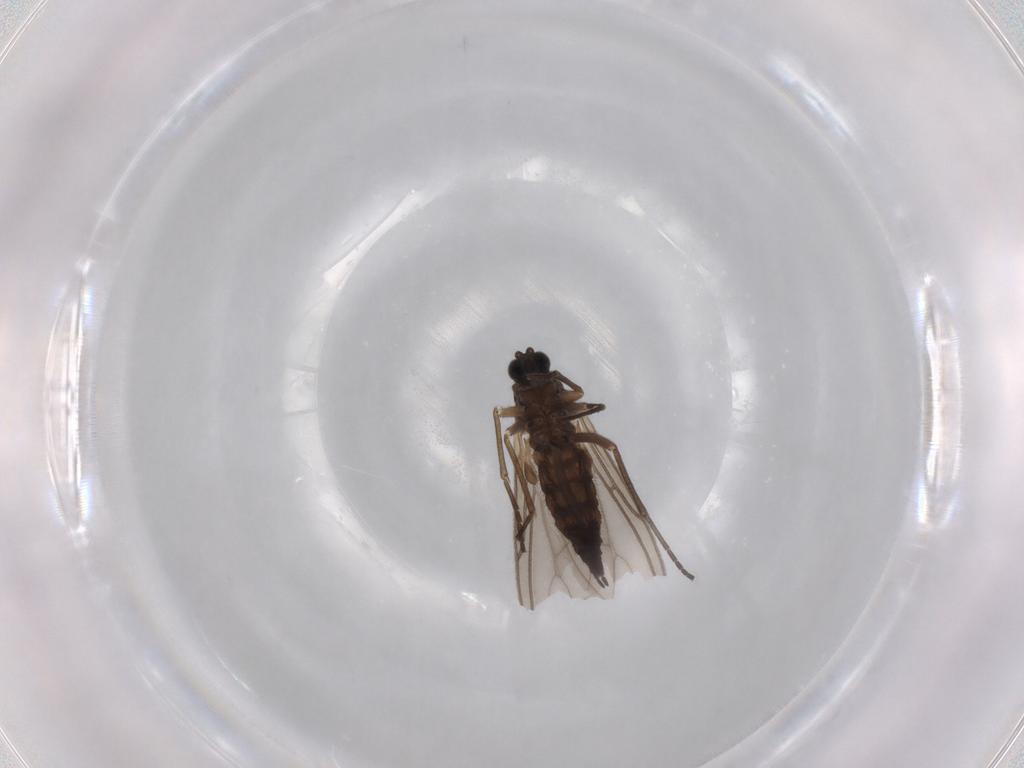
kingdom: Animalia
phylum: Arthropoda
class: Insecta
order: Diptera
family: Sciaridae
